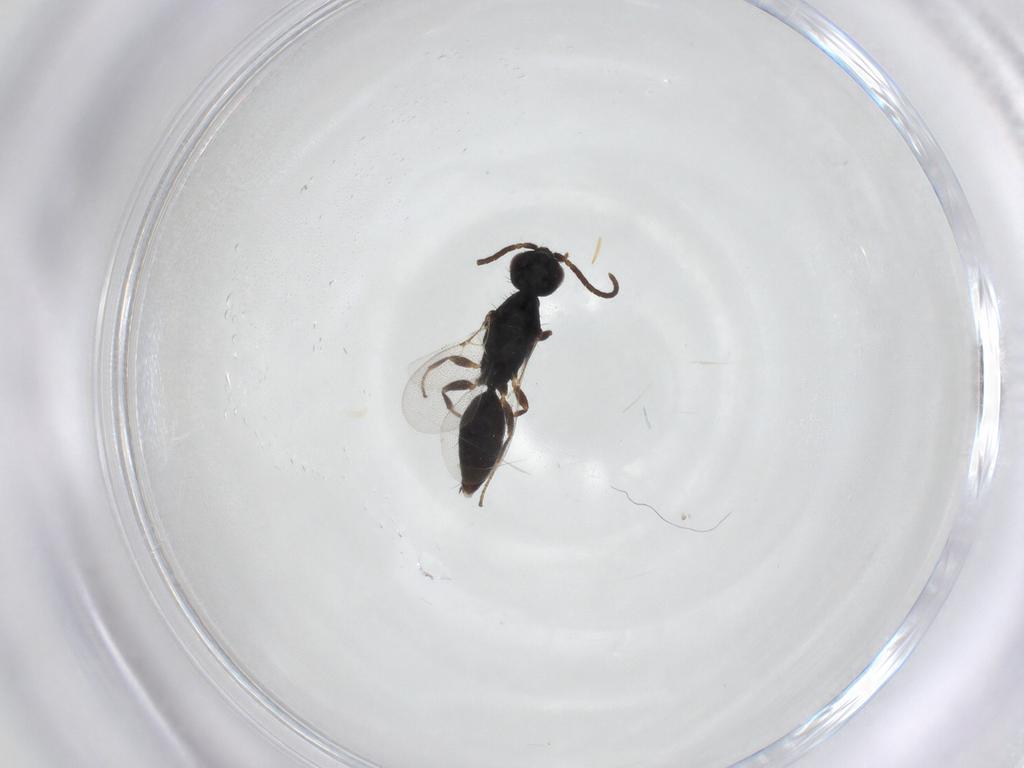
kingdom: Animalia
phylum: Arthropoda
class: Insecta
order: Hymenoptera
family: Bethylidae
